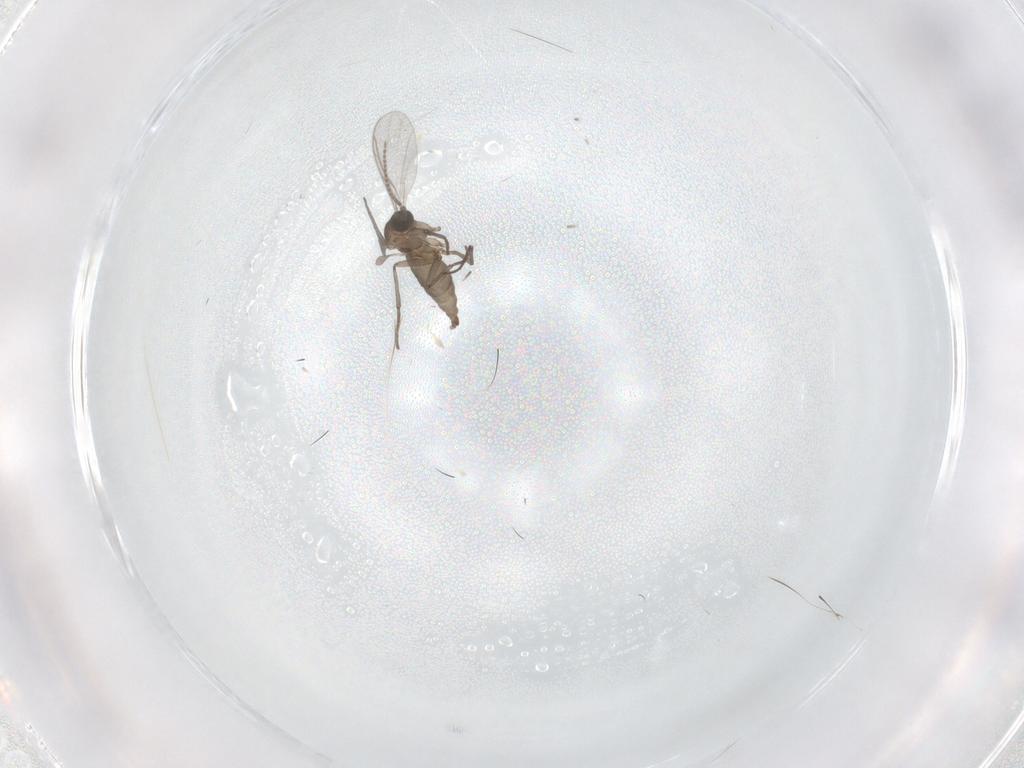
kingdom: Animalia
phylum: Arthropoda
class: Insecta
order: Diptera
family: Sciaridae
